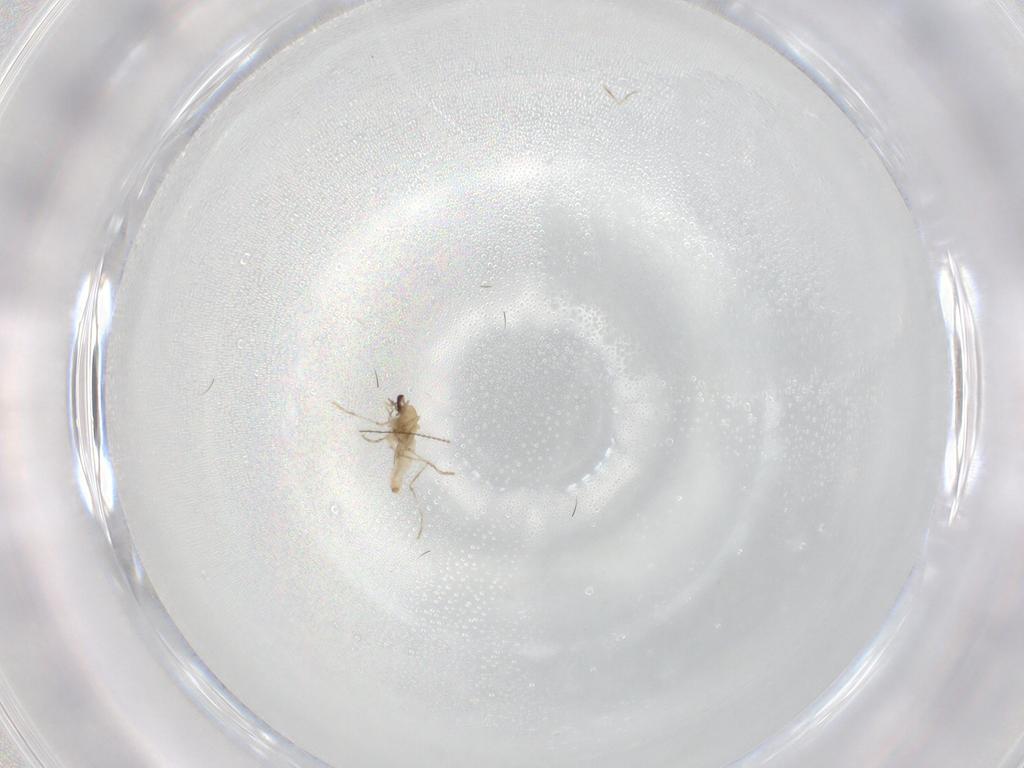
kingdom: Animalia
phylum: Arthropoda
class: Insecta
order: Diptera
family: Cecidomyiidae
